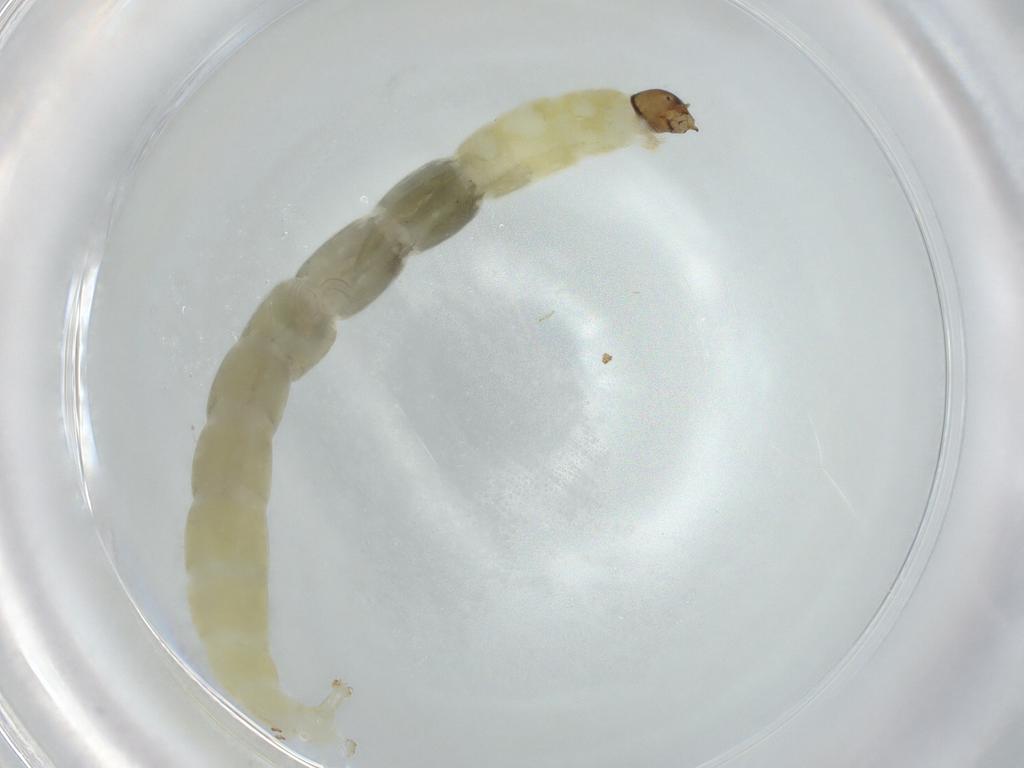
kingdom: Animalia
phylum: Arthropoda
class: Insecta
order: Diptera
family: Chironomidae
